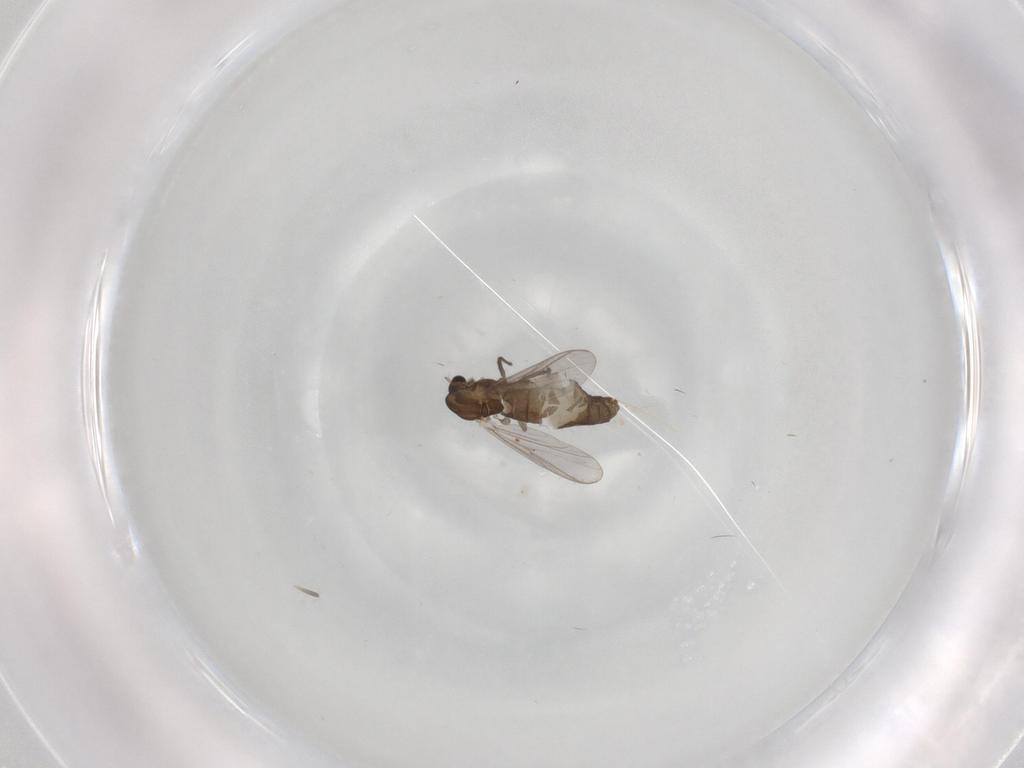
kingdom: Animalia
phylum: Arthropoda
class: Insecta
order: Diptera
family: Chironomidae
